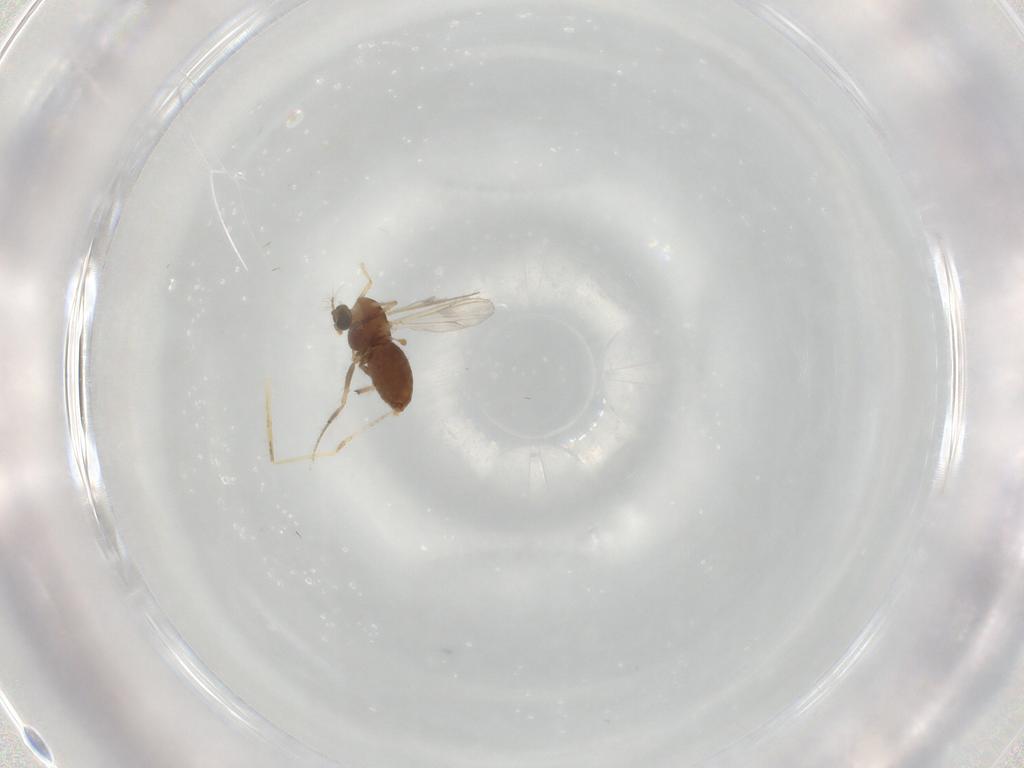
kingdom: Animalia
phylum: Arthropoda
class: Insecta
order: Diptera
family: Chironomidae
